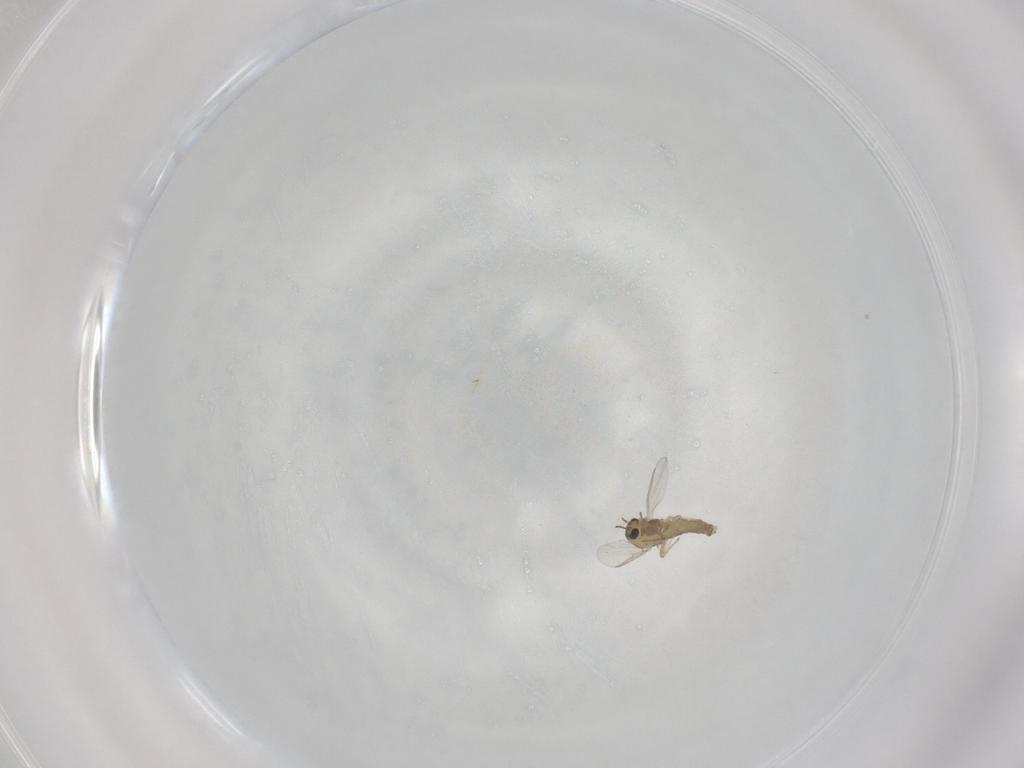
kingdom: Animalia
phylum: Arthropoda
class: Insecta
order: Diptera
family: Chironomidae
